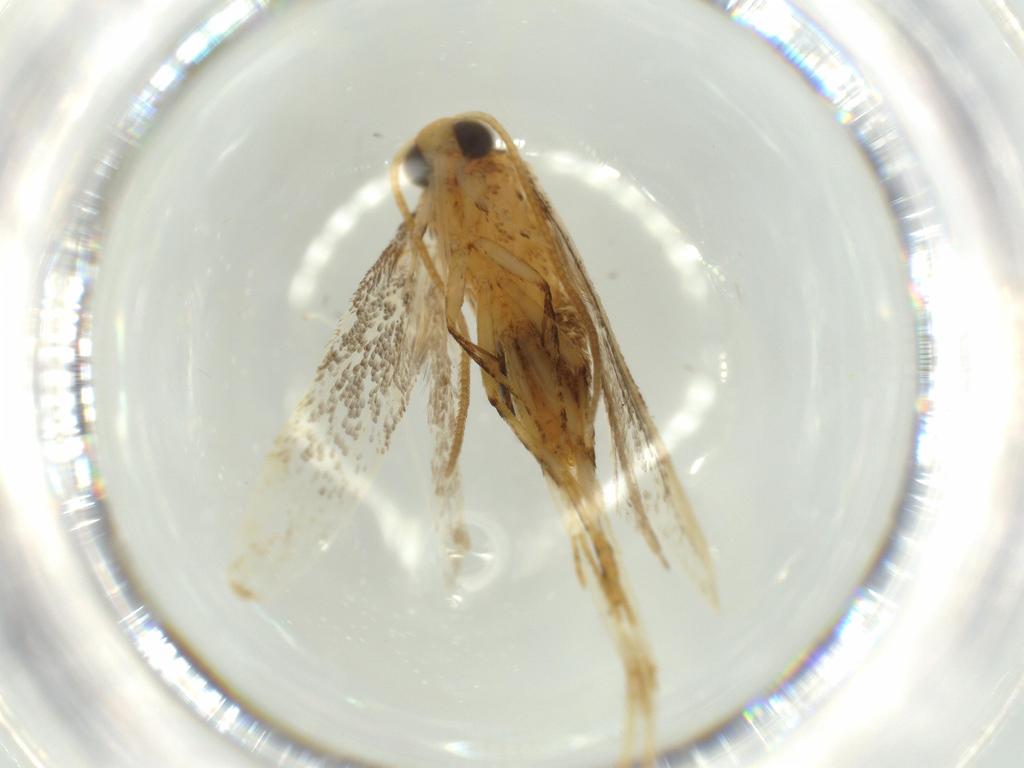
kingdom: Animalia
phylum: Arthropoda
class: Insecta
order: Lepidoptera
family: Tineidae
